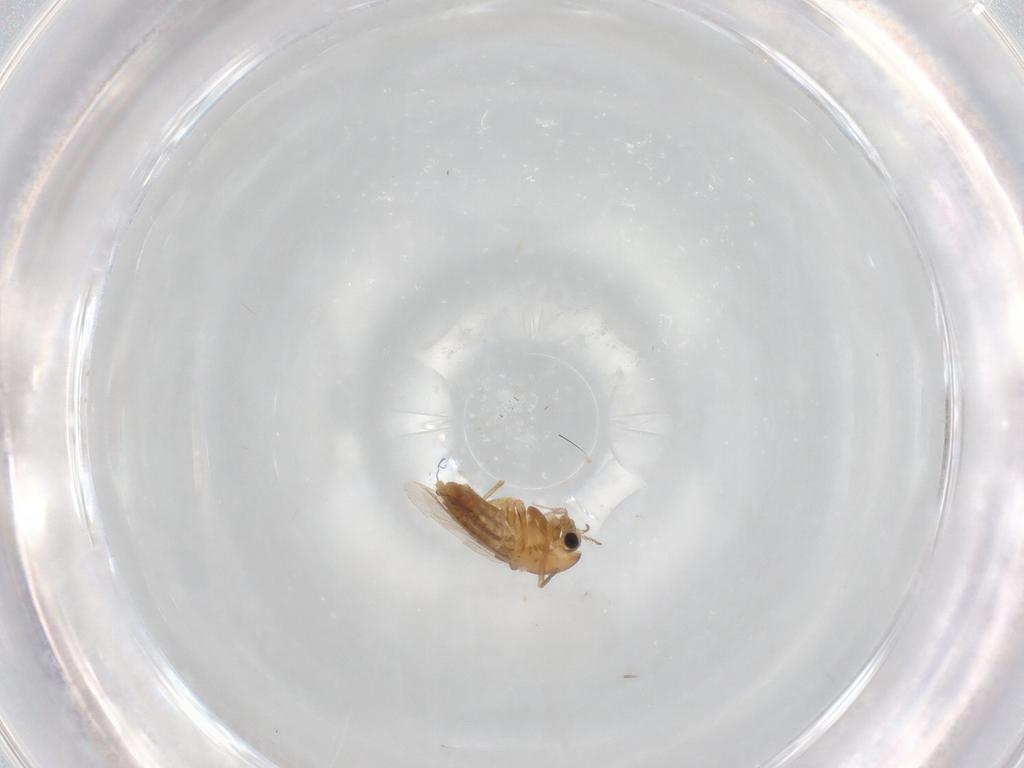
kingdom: Animalia
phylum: Arthropoda
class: Insecta
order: Diptera
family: Chironomidae
